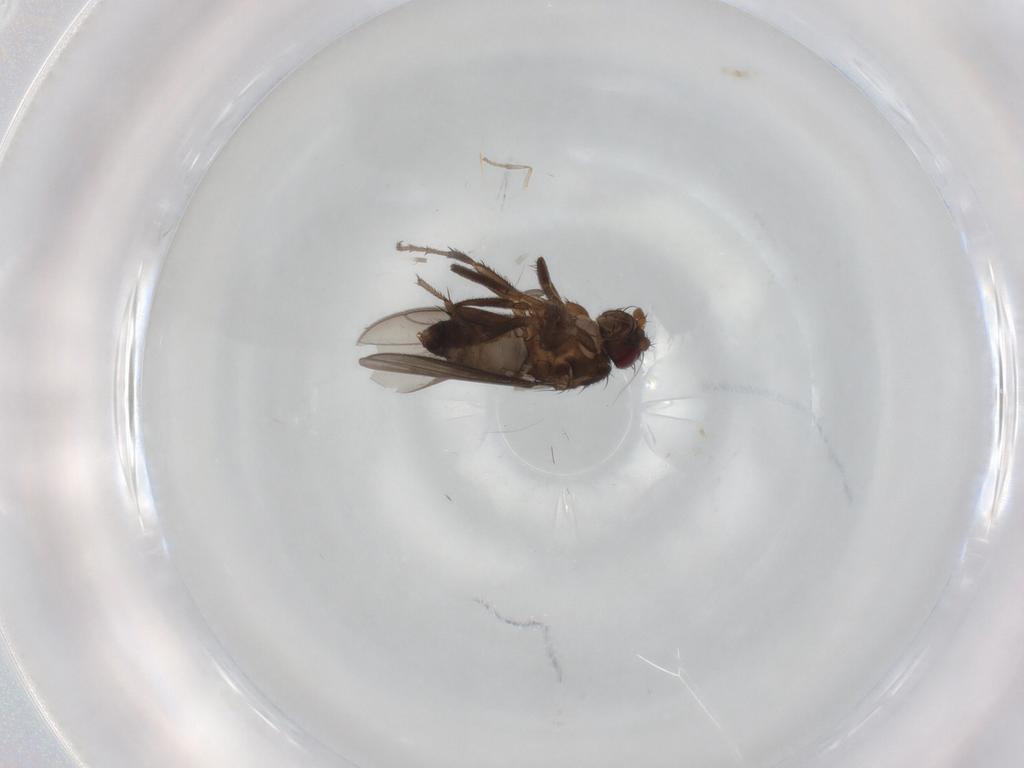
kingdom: Animalia
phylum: Arthropoda
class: Insecta
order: Diptera
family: Sphaeroceridae
